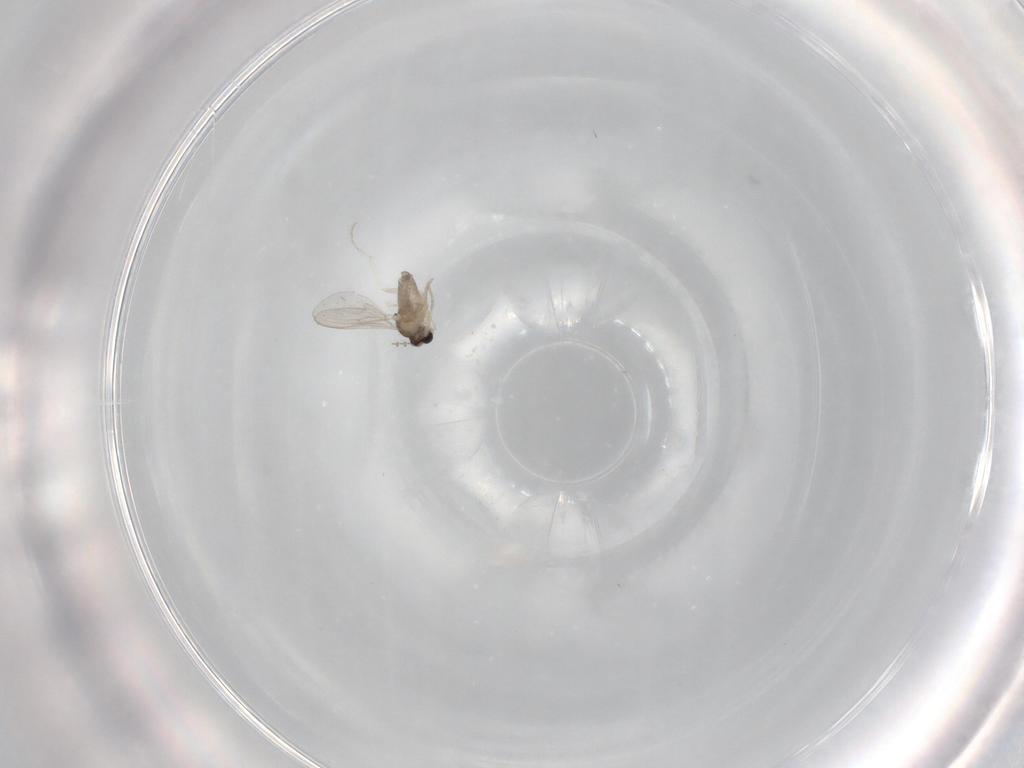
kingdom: Animalia
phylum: Arthropoda
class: Insecta
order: Diptera
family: Cecidomyiidae
